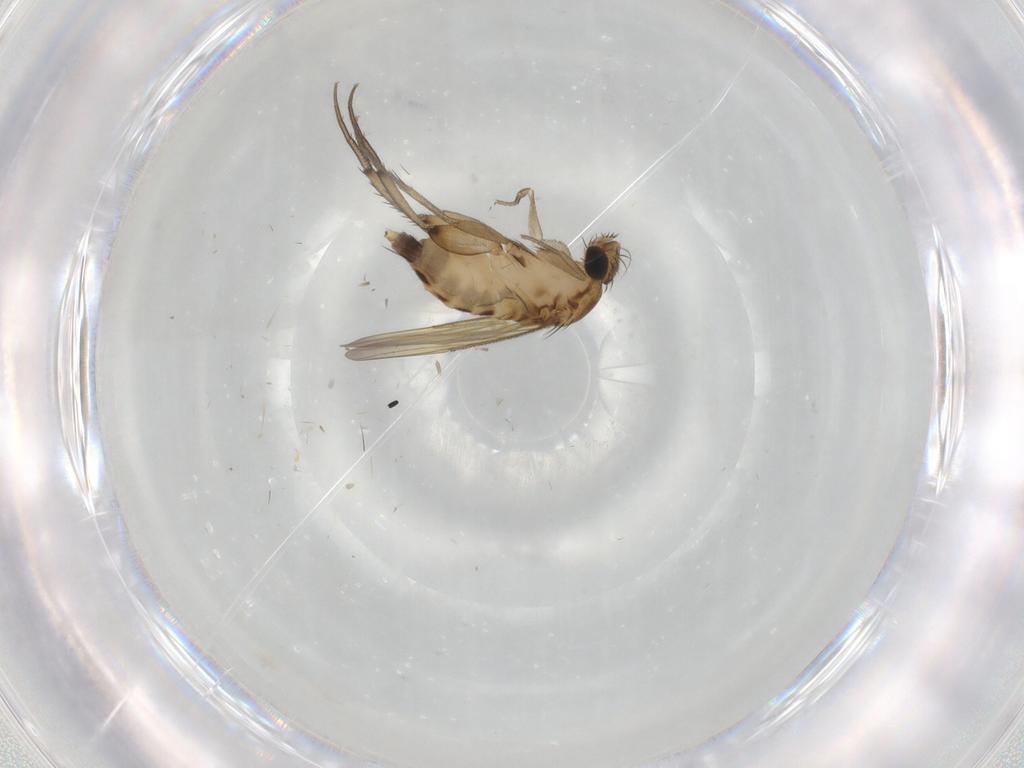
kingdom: Animalia
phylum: Arthropoda
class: Insecta
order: Diptera
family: Phoridae
